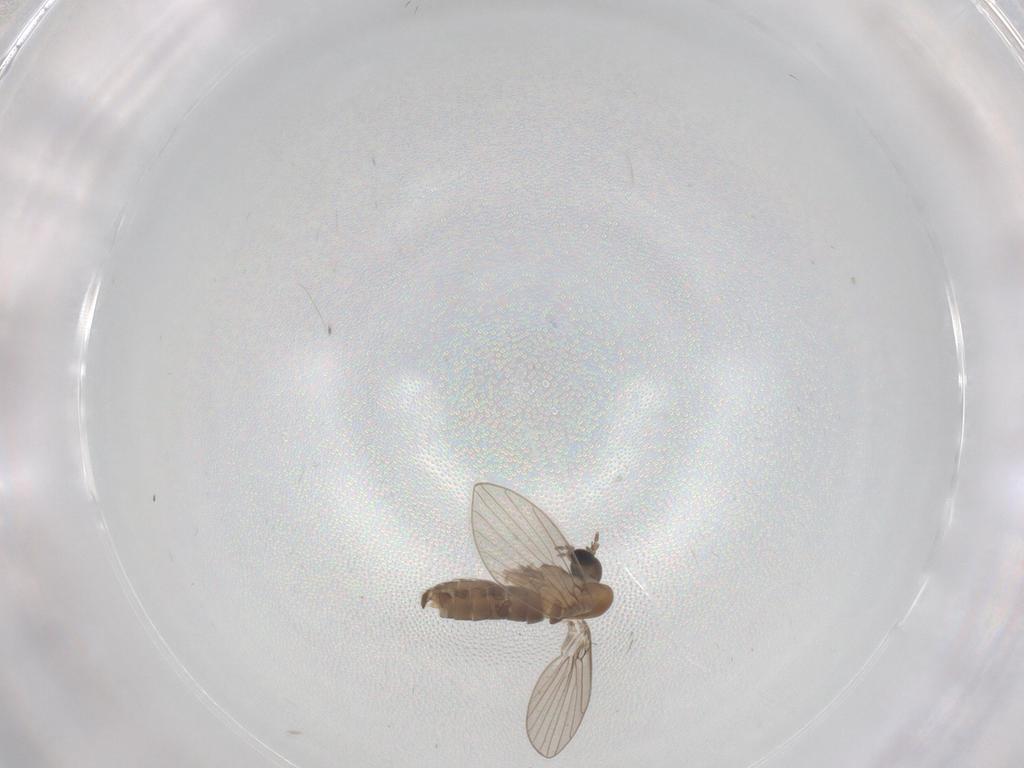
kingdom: Animalia
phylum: Arthropoda
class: Insecta
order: Diptera
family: Psychodidae
